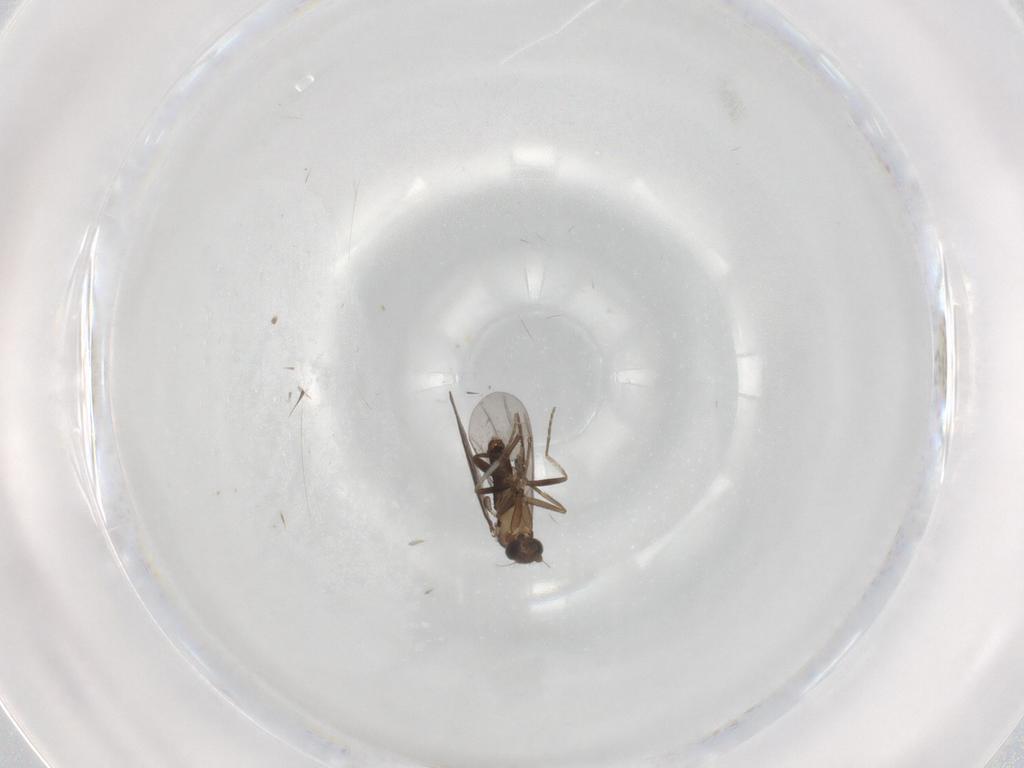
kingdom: Animalia
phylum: Arthropoda
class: Insecta
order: Diptera
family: Phoridae
